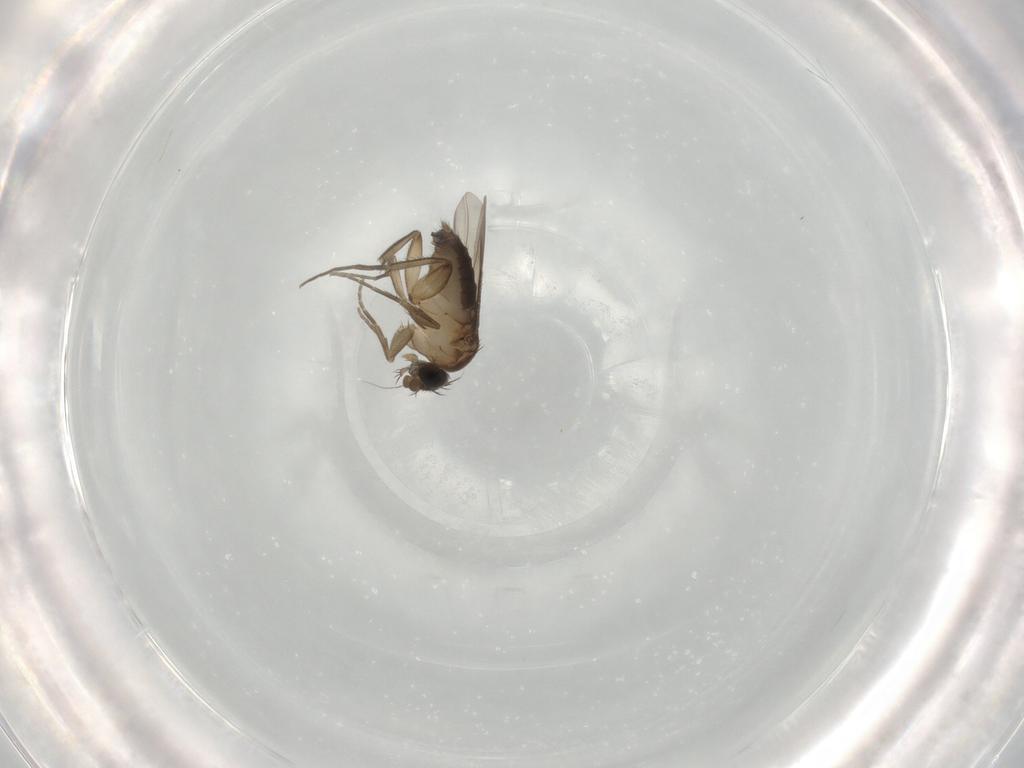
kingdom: Animalia
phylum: Arthropoda
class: Insecta
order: Diptera
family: Phoridae
